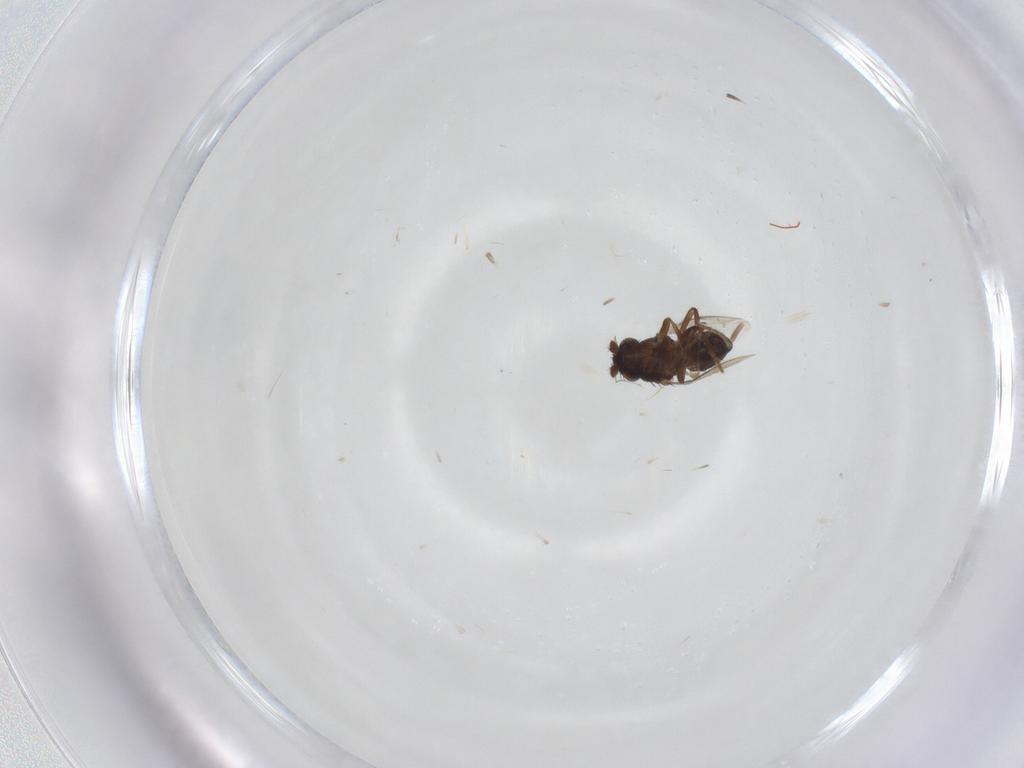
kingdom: Animalia
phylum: Arthropoda
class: Insecta
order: Diptera
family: Sphaeroceridae
